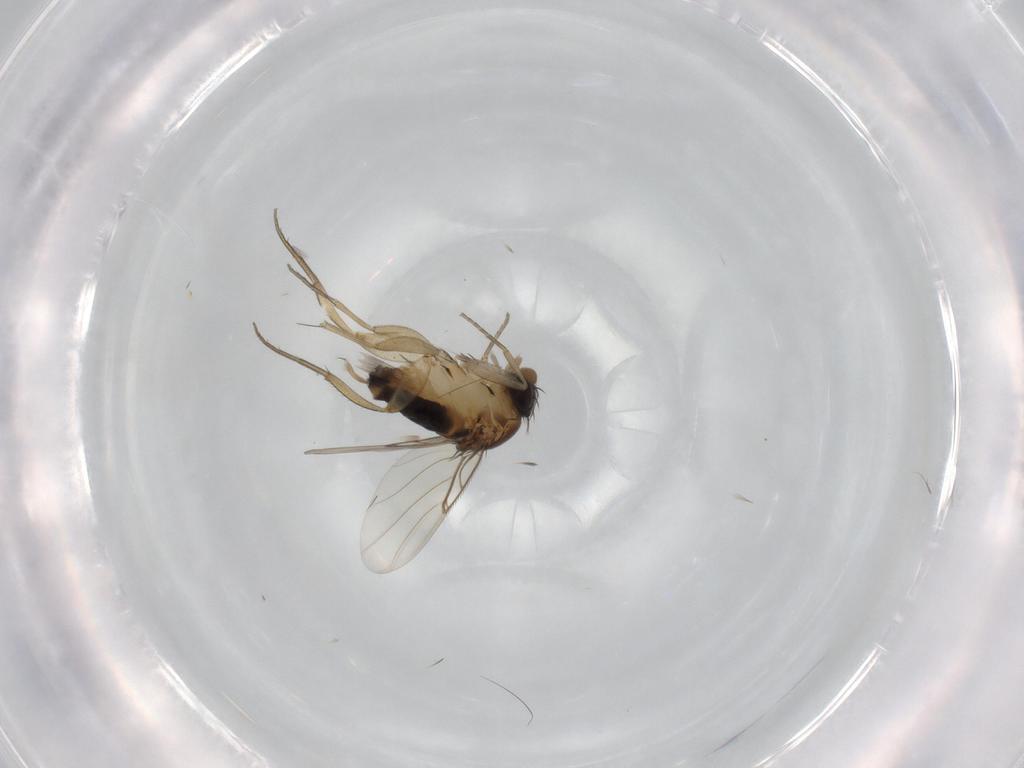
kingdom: Animalia
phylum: Arthropoda
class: Insecta
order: Diptera
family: Phoridae
